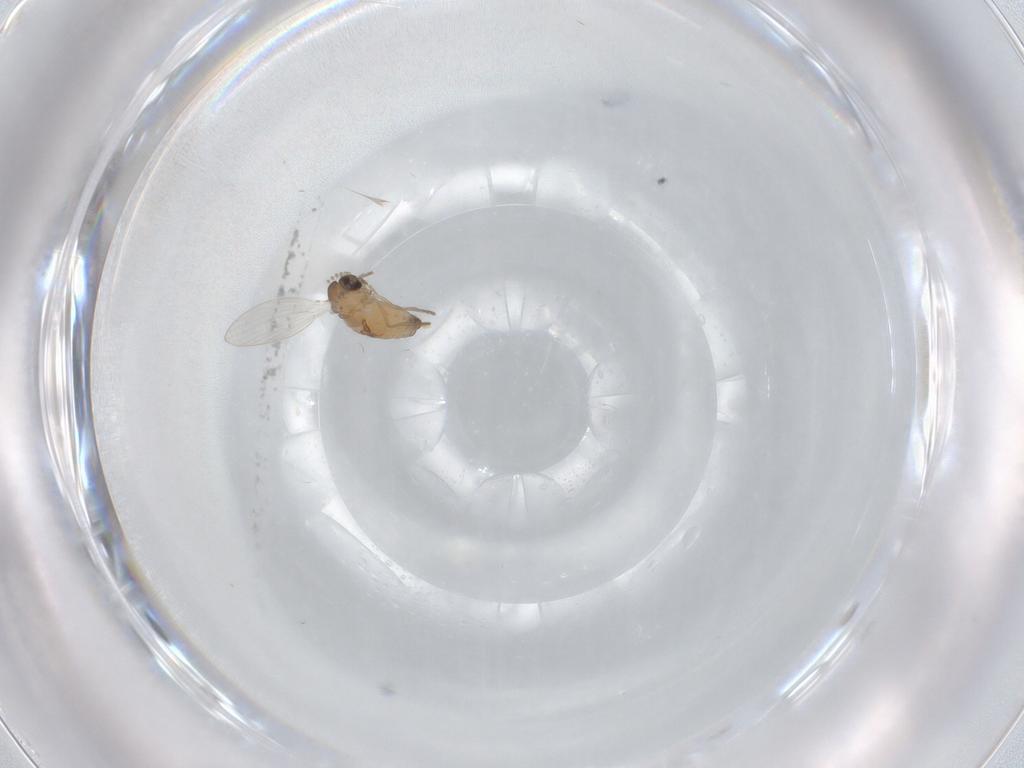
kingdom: Animalia
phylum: Arthropoda
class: Insecta
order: Diptera
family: Psychodidae
